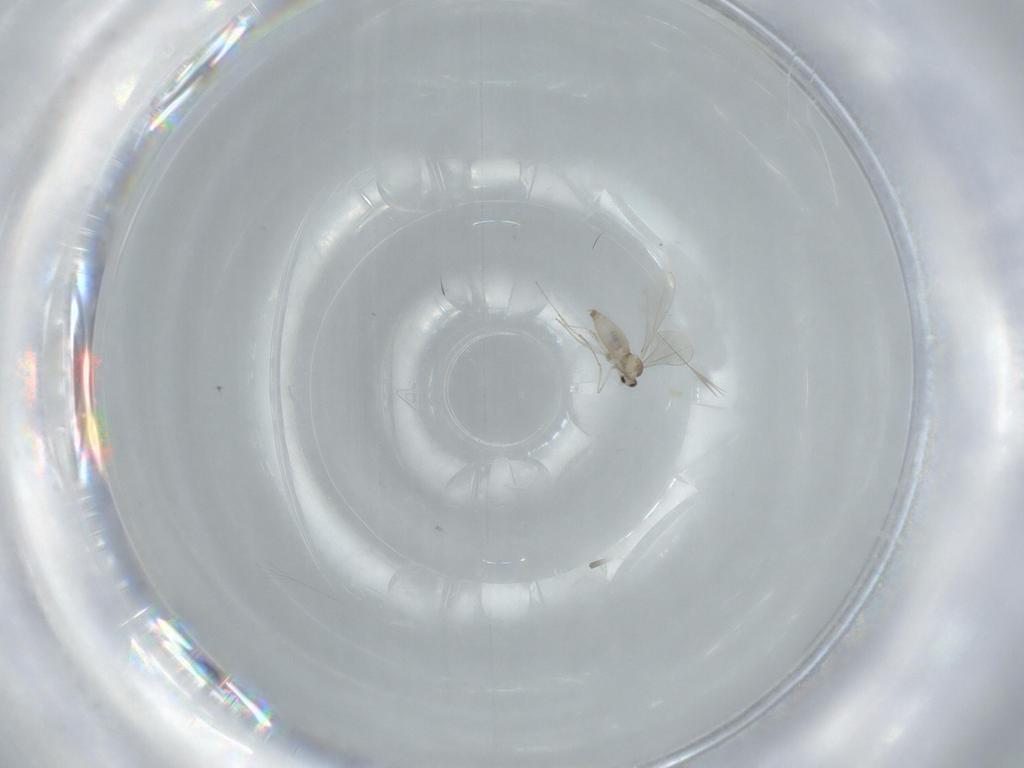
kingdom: Animalia
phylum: Arthropoda
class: Insecta
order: Diptera
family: Cecidomyiidae
